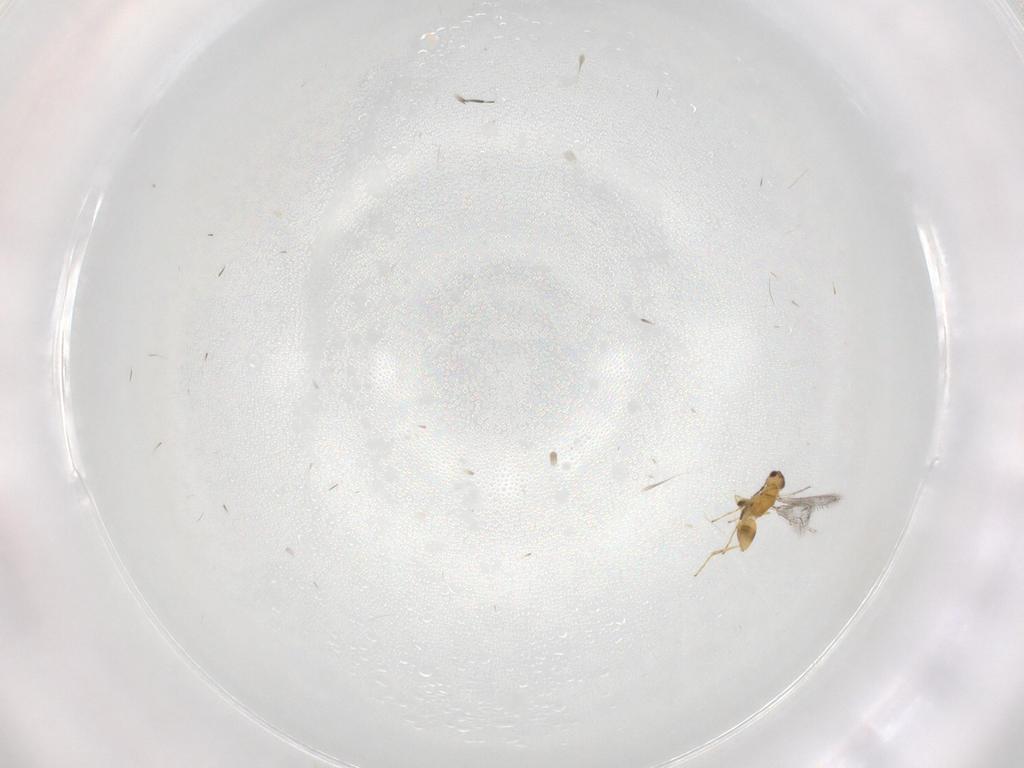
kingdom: Animalia
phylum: Arthropoda
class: Insecta
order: Hymenoptera
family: Mymaridae
